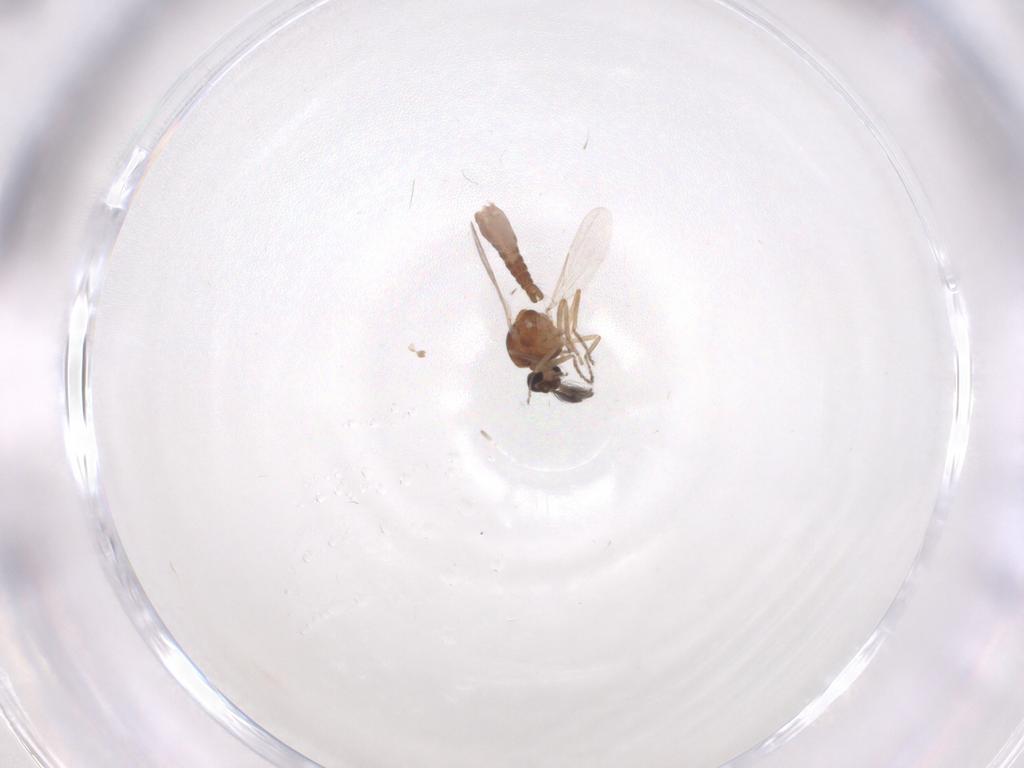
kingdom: Animalia
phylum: Arthropoda
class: Insecta
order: Diptera
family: Ceratopogonidae
